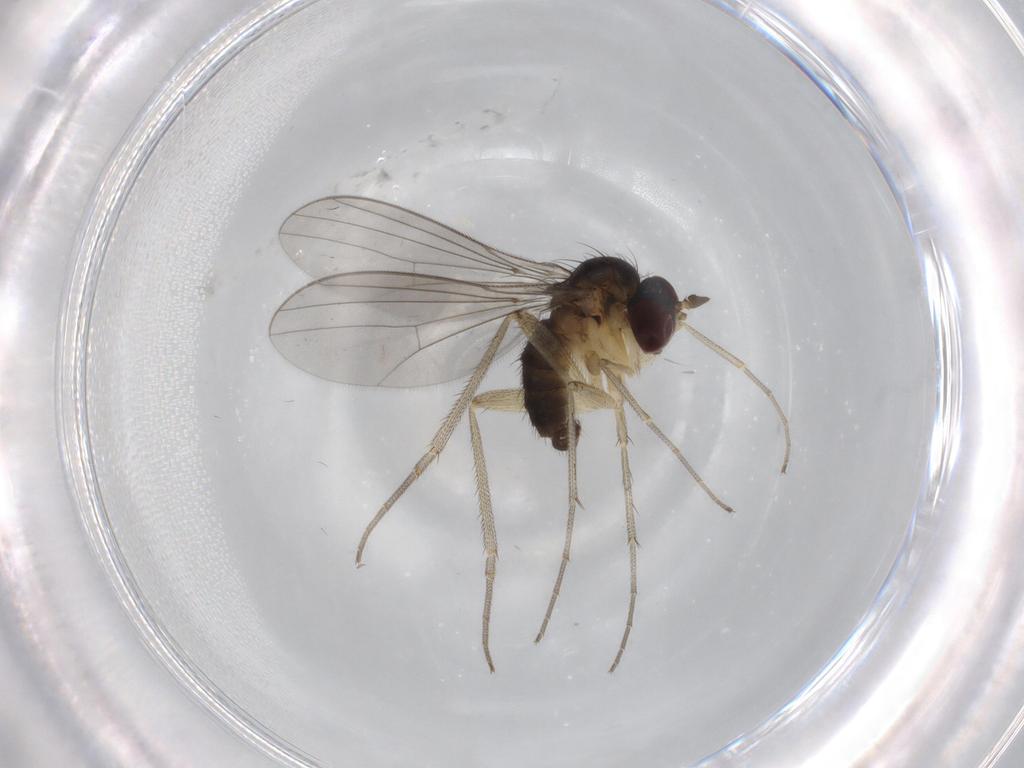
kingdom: Animalia
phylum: Arthropoda
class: Insecta
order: Diptera
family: Dolichopodidae
